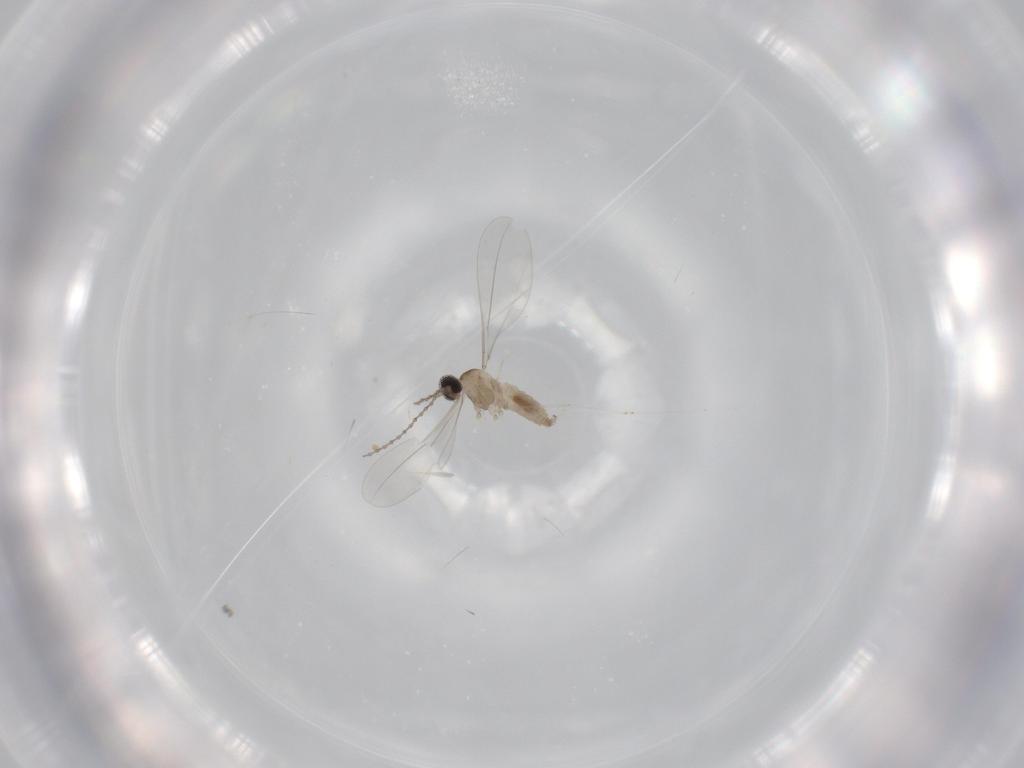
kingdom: Animalia
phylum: Arthropoda
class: Insecta
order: Diptera
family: Cecidomyiidae
